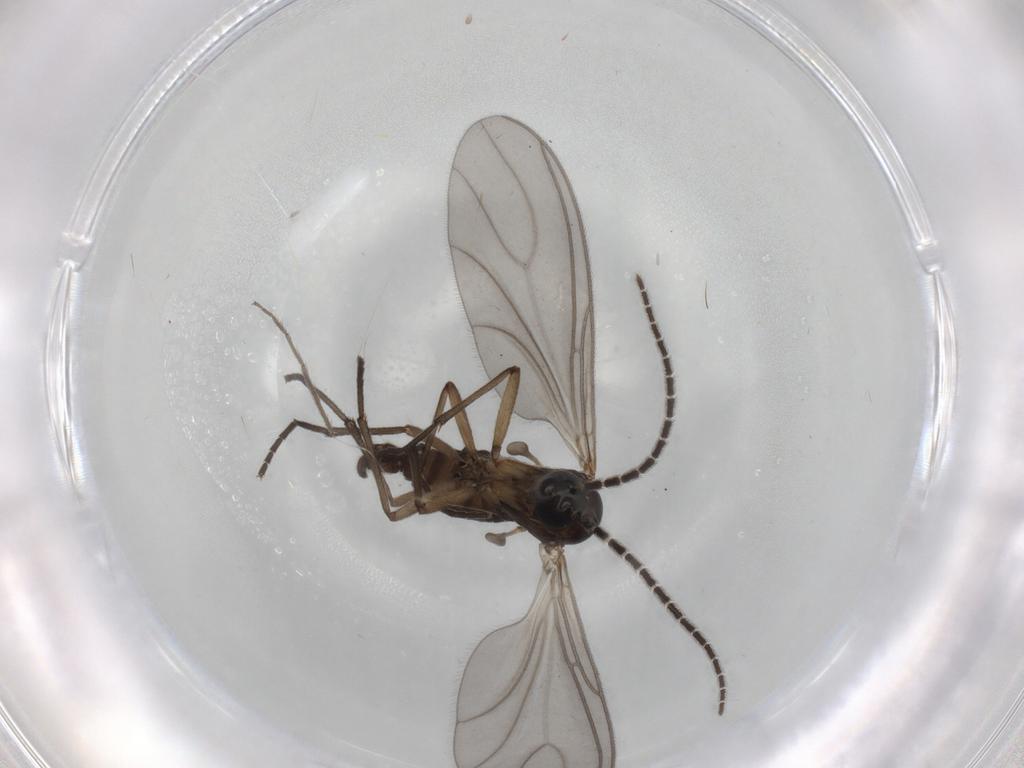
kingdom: Animalia
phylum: Arthropoda
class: Insecta
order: Diptera
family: Sciaridae
